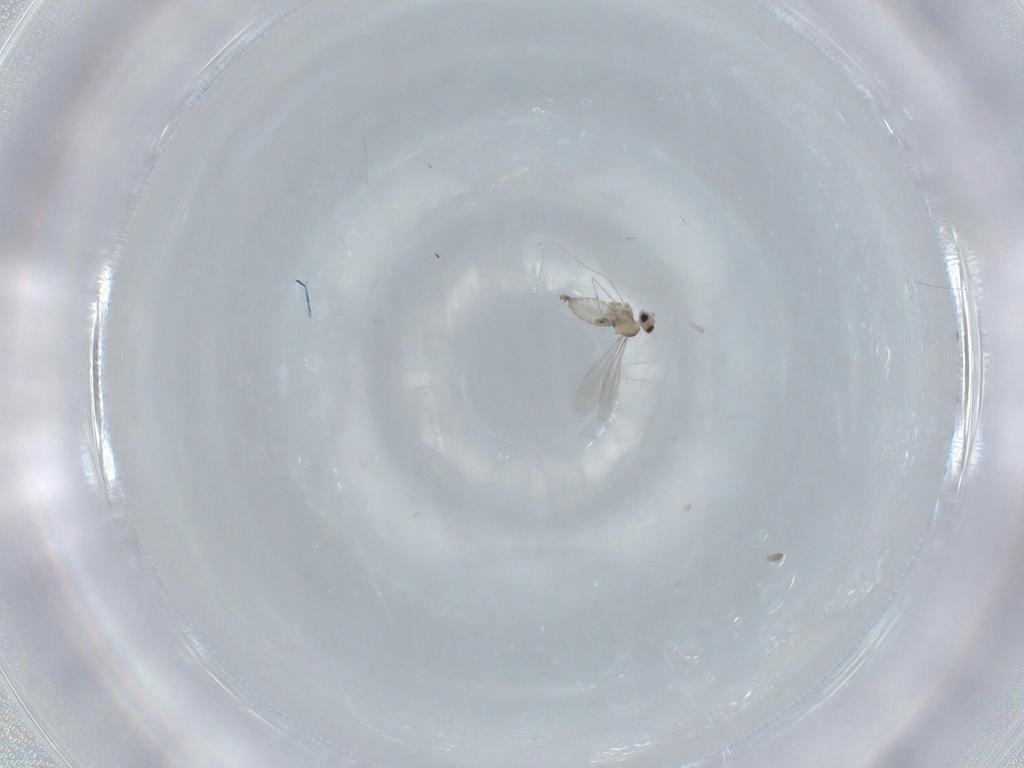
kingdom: Animalia
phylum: Arthropoda
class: Insecta
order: Diptera
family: Cecidomyiidae
